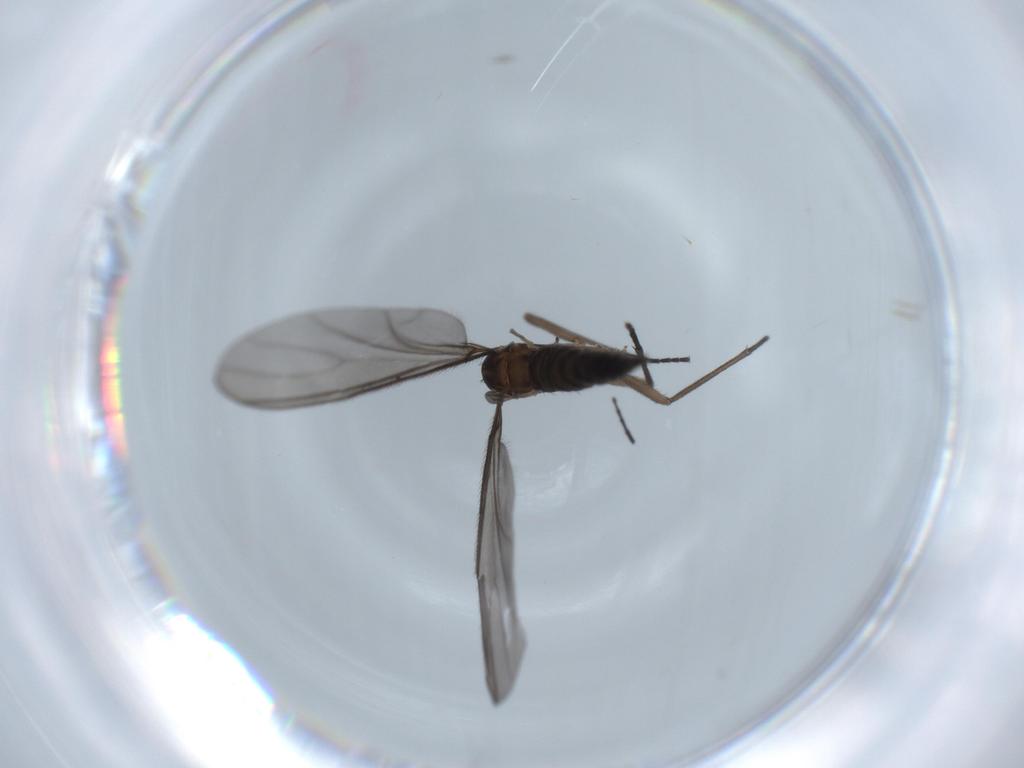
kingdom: Animalia
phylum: Arthropoda
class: Insecta
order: Diptera
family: Sciaridae
